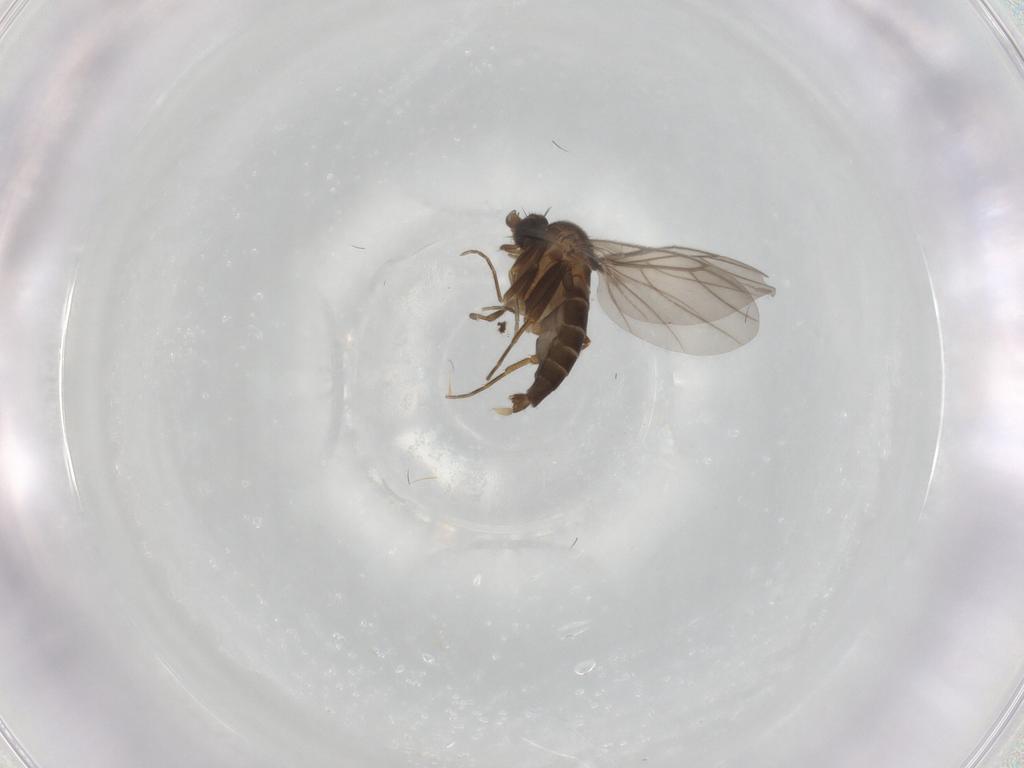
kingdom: Animalia
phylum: Arthropoda
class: Insecta
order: Diptera
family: Cecidomyiidae
